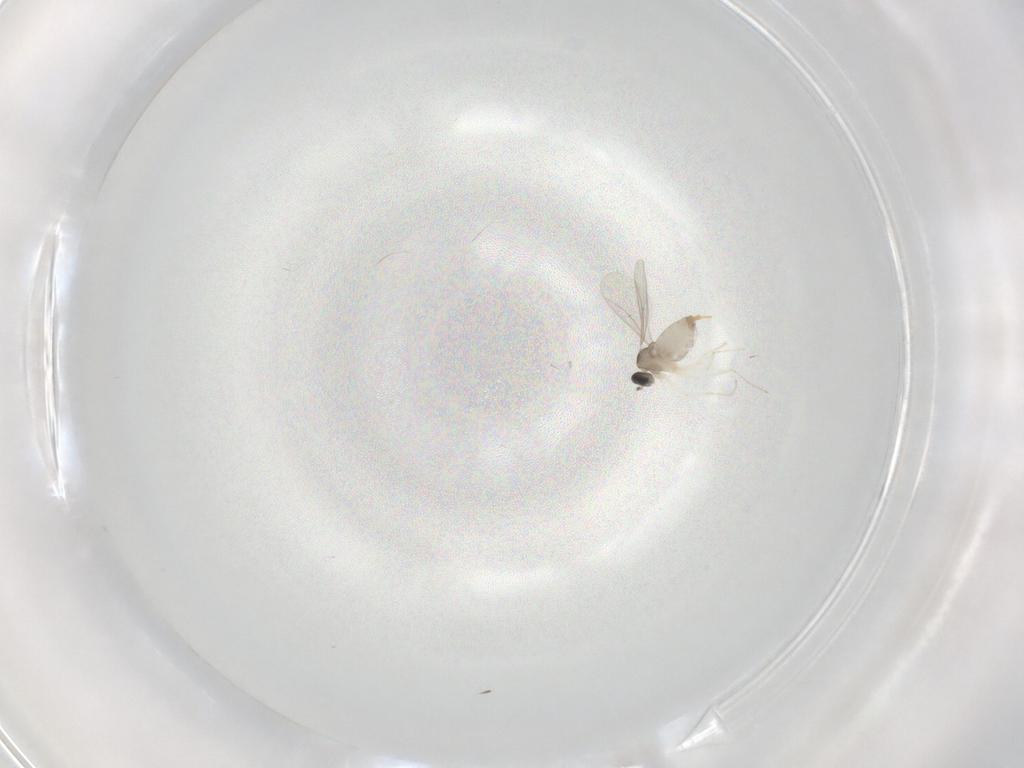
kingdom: Animalia
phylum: Arthropoda
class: Insecta
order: Diptera
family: Cecidomyiidae
